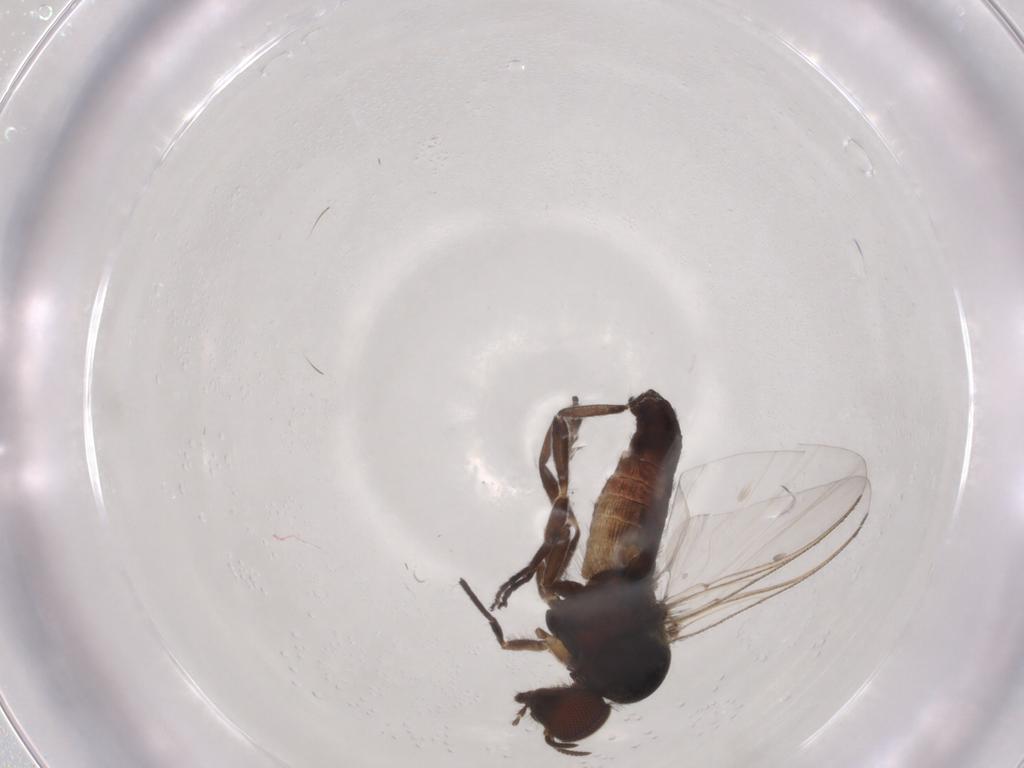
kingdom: Animalia
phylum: Arthropoda
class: Insecta
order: Diptera
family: Simuliidae
